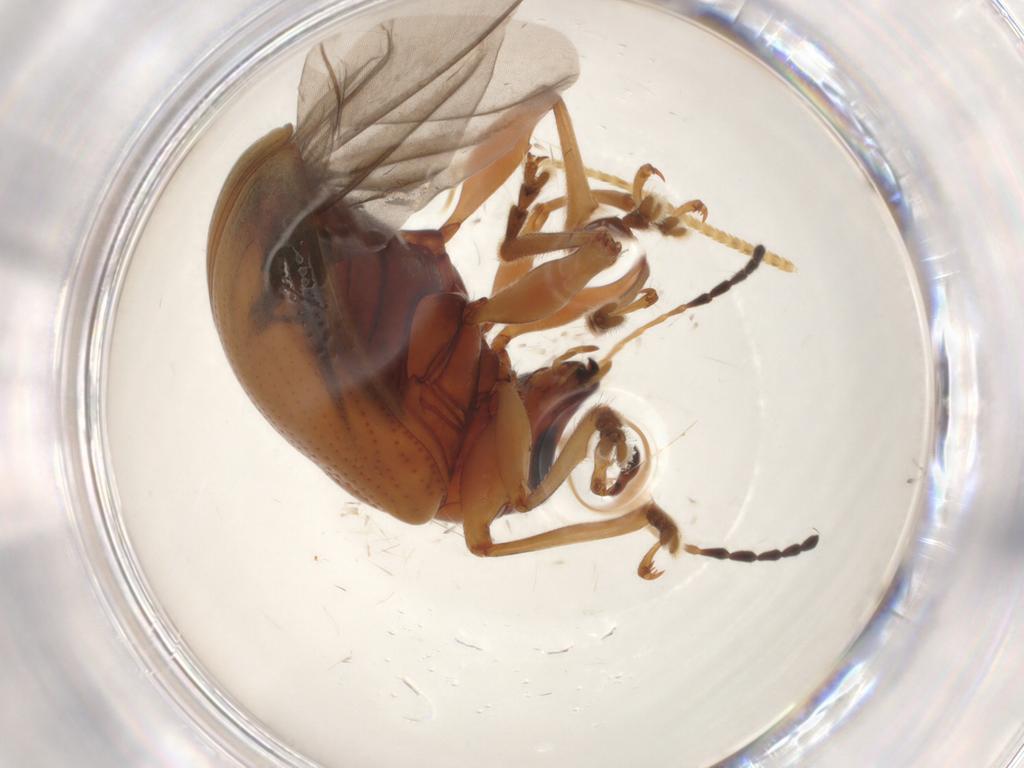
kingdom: Animalia
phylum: Arthropoda
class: Insecta
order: Coleoptera
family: Chrysomelidae
